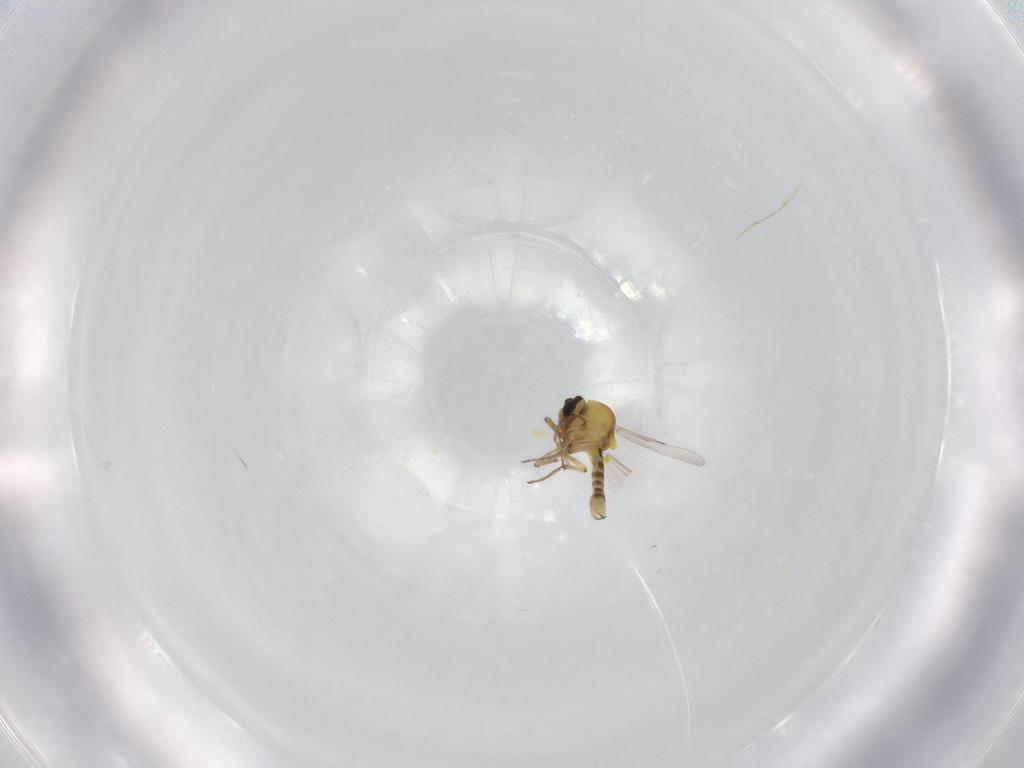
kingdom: Animalia
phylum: Arthropoda
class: Insecta
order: Diptera
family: Ceratopogonidae
